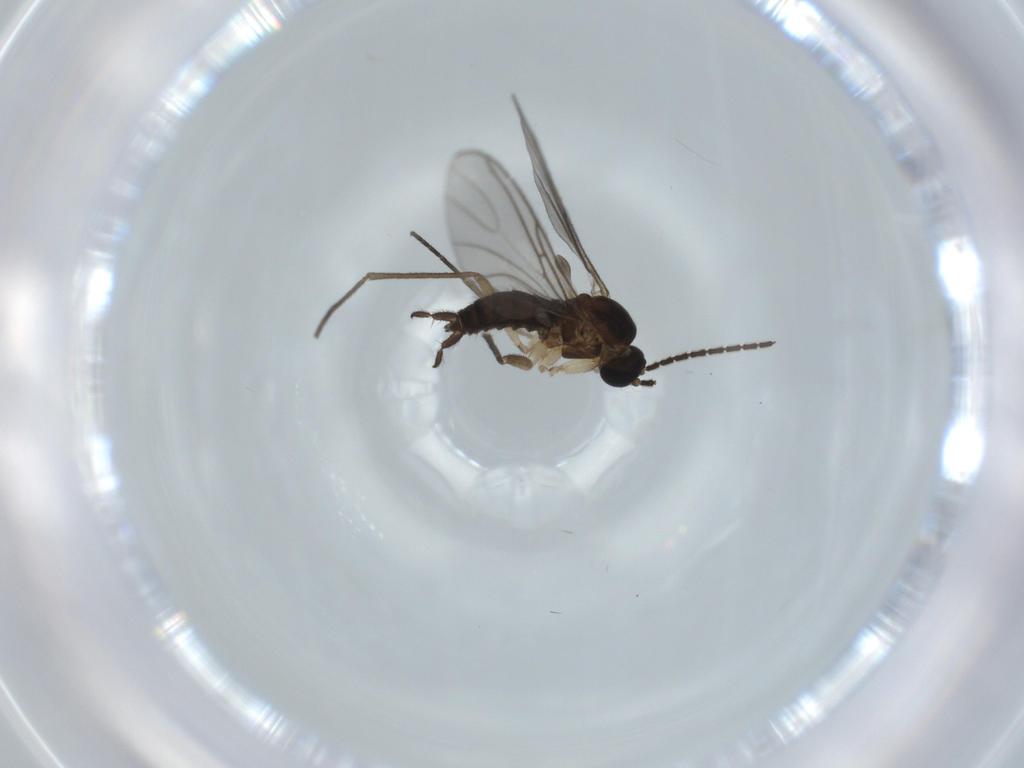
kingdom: Animalia
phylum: Arthropoda
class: Insecta
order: Diptera
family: Sciaridae
